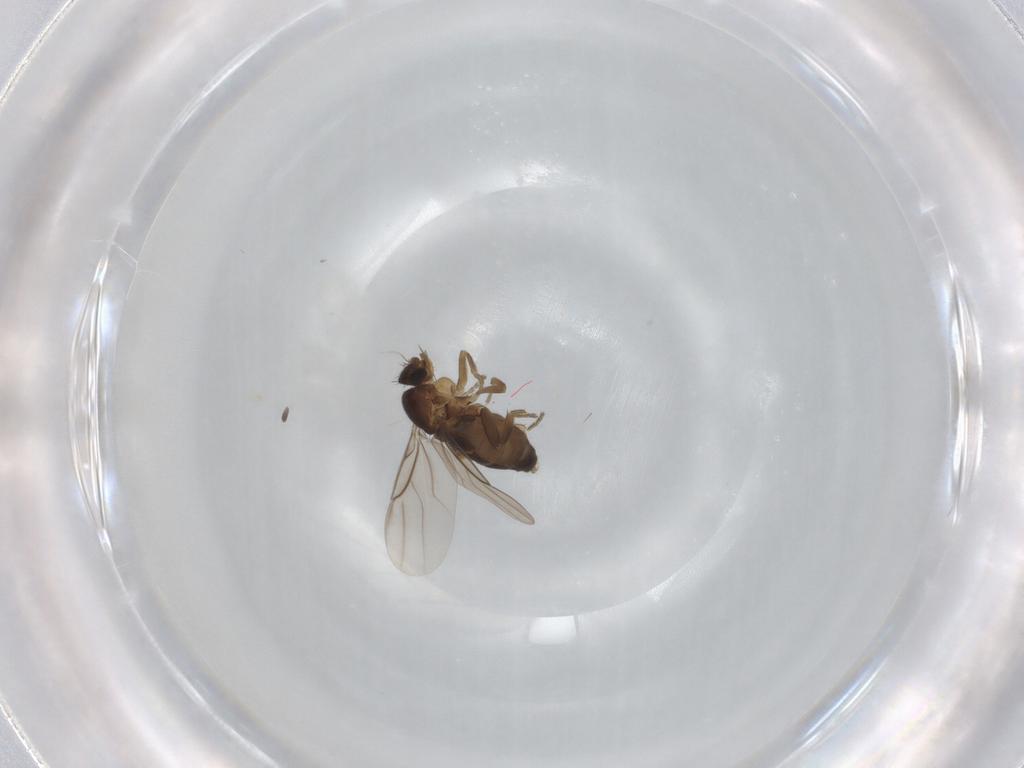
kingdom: Animalia
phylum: Arthropoda
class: Insecta
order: Diptera
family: Phoridae
